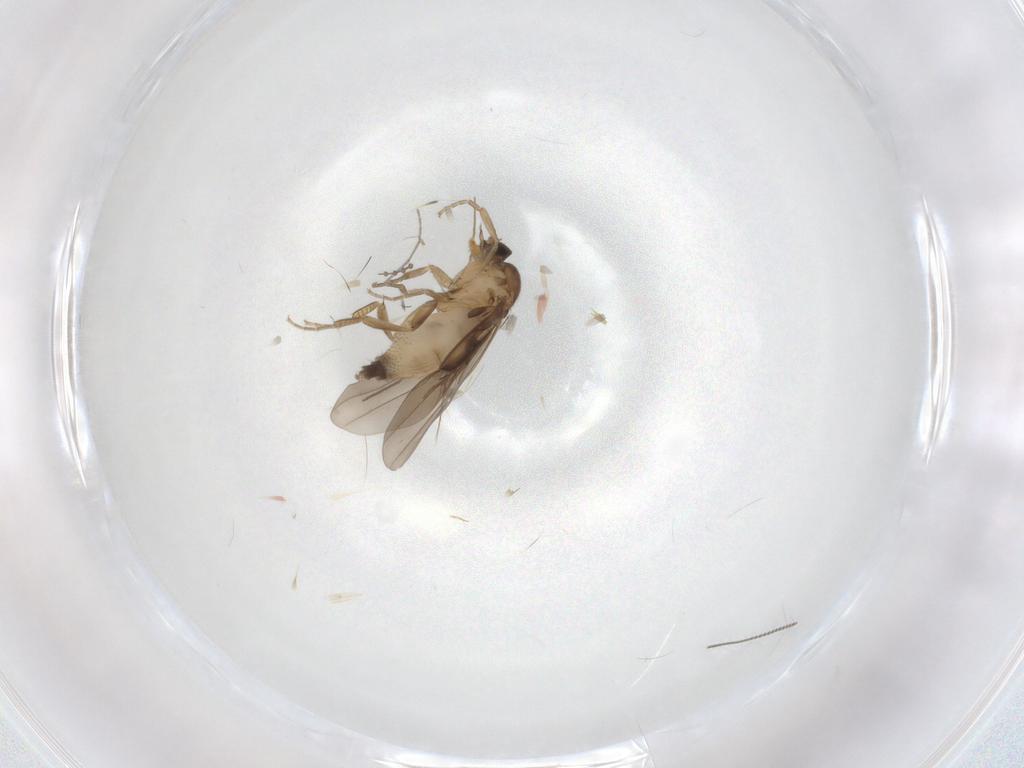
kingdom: Animalia
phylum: Arthropoda
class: Insecta
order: Diptera
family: Phoridae
